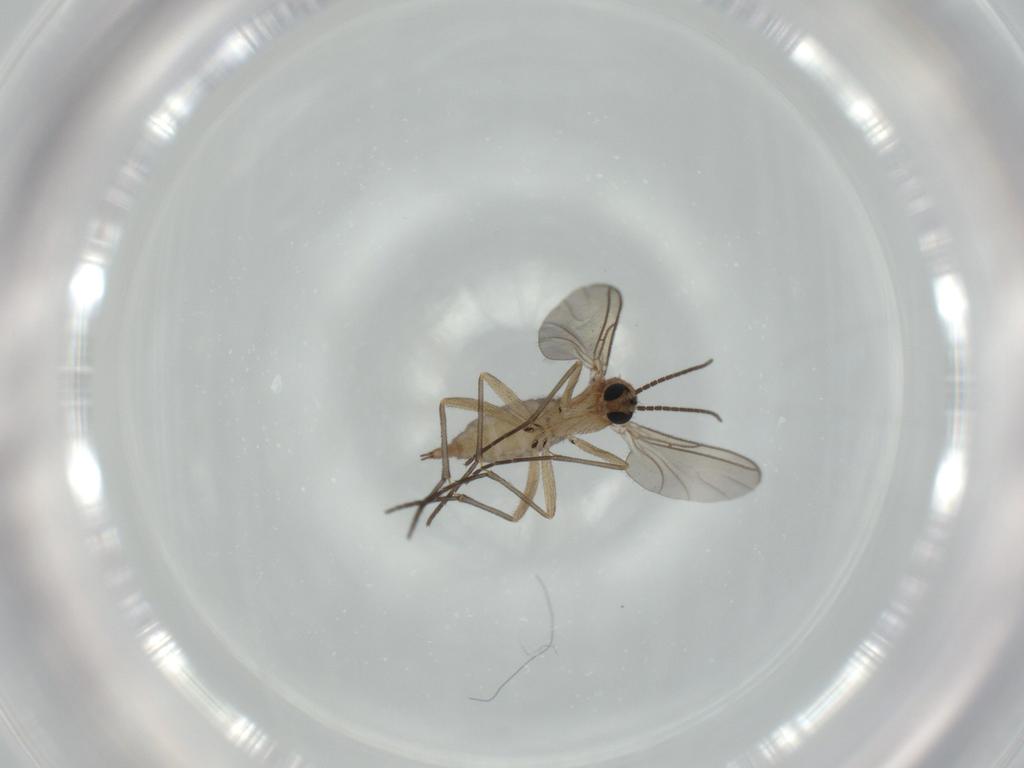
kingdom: Animalia
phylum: Arthropoda
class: Insecta
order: Diptera
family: Sciaridae
